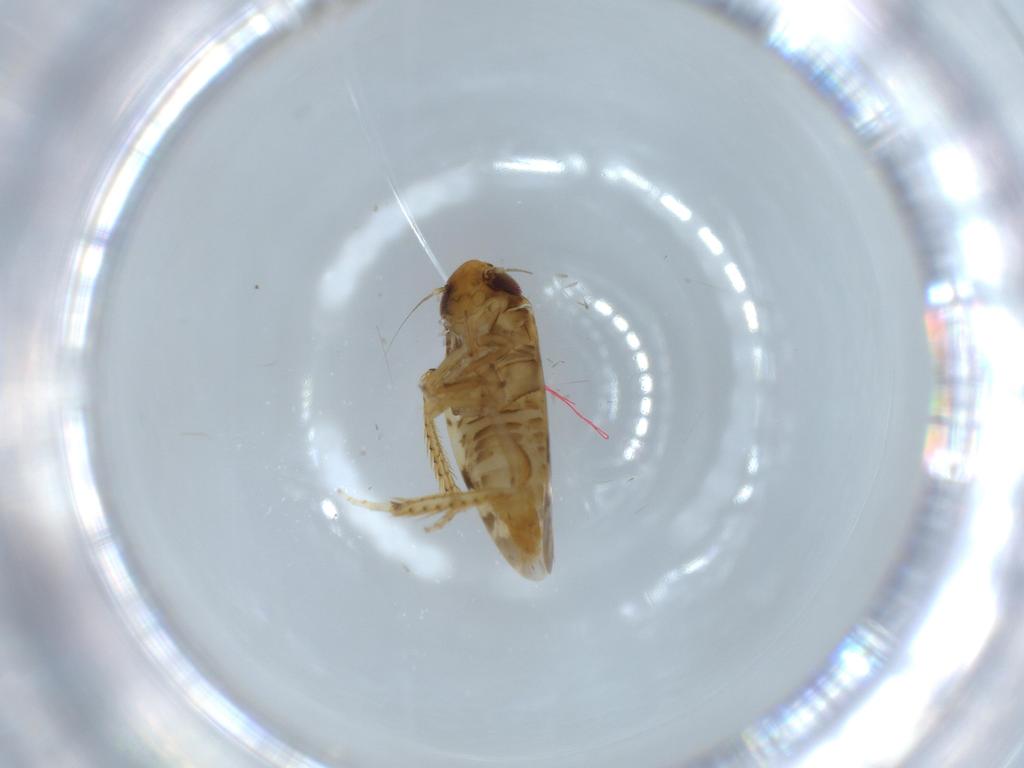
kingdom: Animalia
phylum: Arthropoda
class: Insecta
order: Hemiptera
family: Cicadellidae
